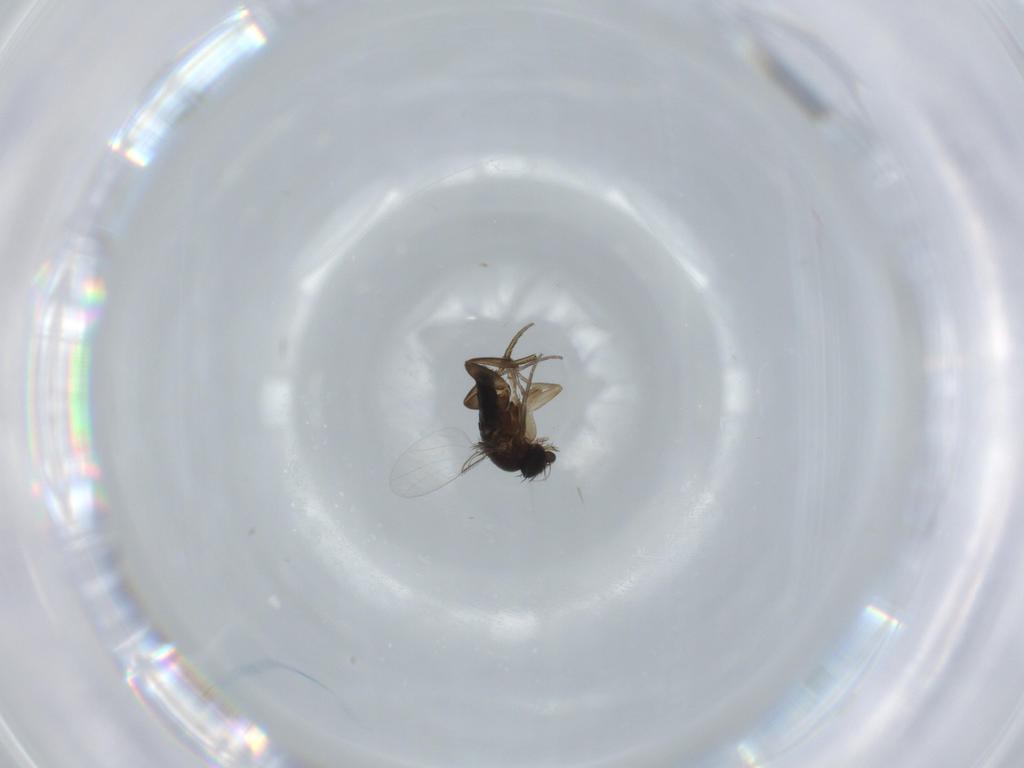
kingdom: Animalia
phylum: Arthropoda
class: Insecta
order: Diptera
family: Phoridae
